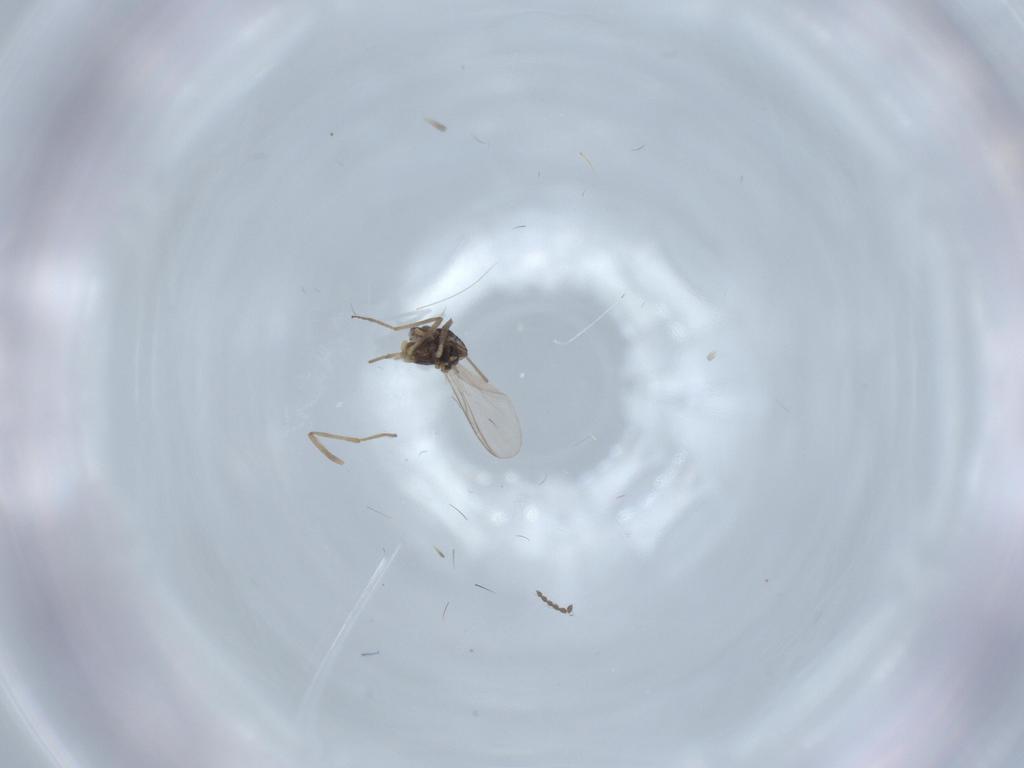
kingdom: Animalia
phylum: Arthropoda
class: Insecta
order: Diptera
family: Chironomidae
